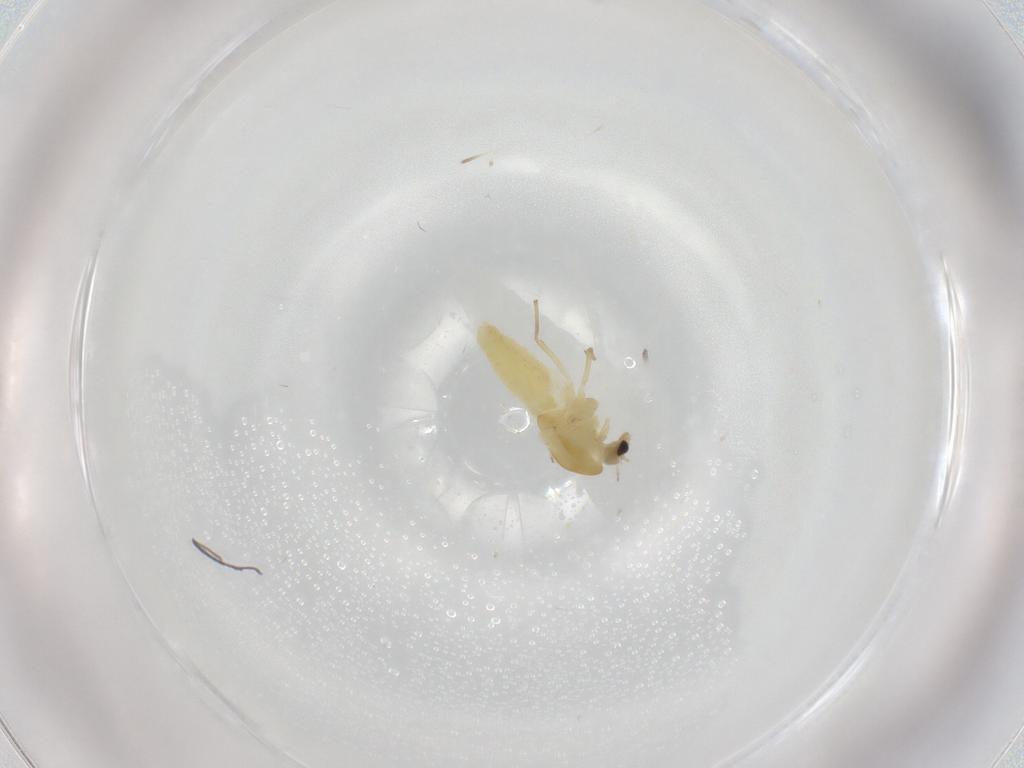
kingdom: Animalia
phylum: Arthropoda
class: Insecta
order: Diptera
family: Chironomidae
